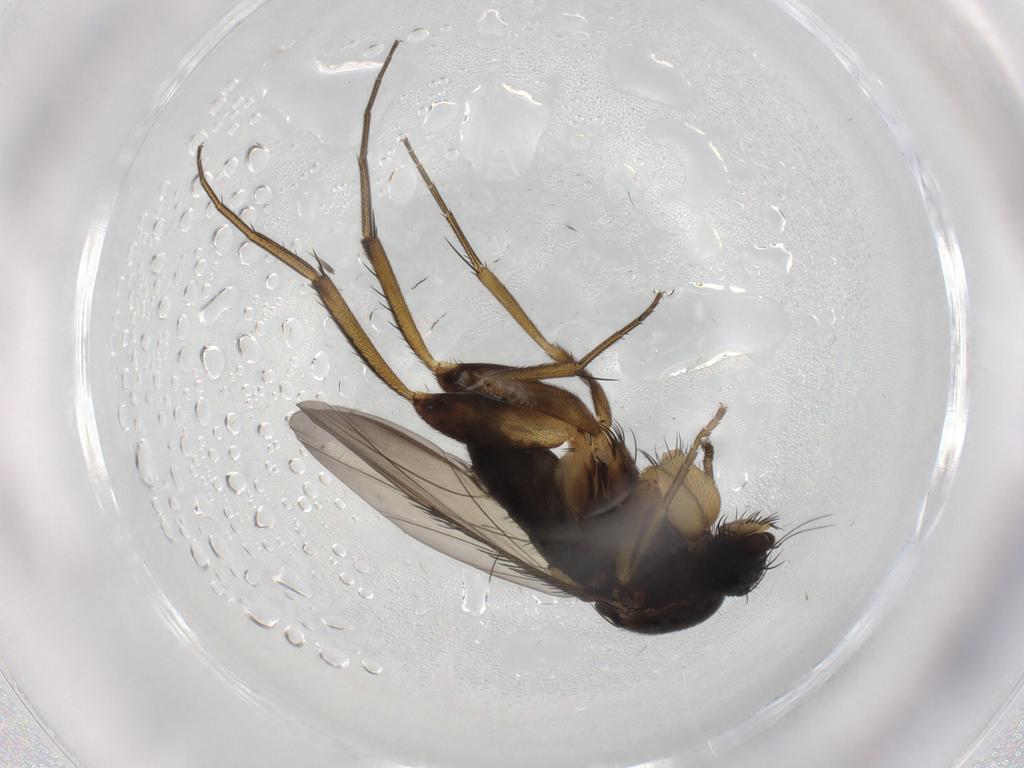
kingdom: Animalia
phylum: Arthropoda
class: Insecta
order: Diptera
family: Phoridae
